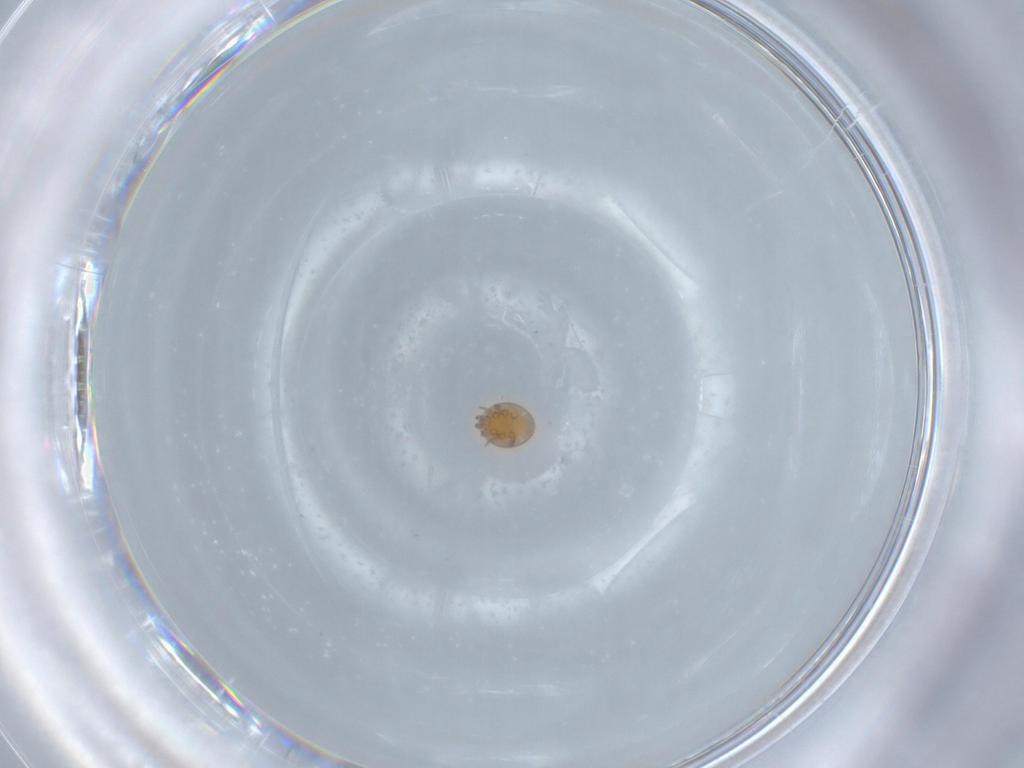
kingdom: Animalia
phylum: Arthropoda
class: Arachnida
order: Mesostigmata
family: Trematuridae
